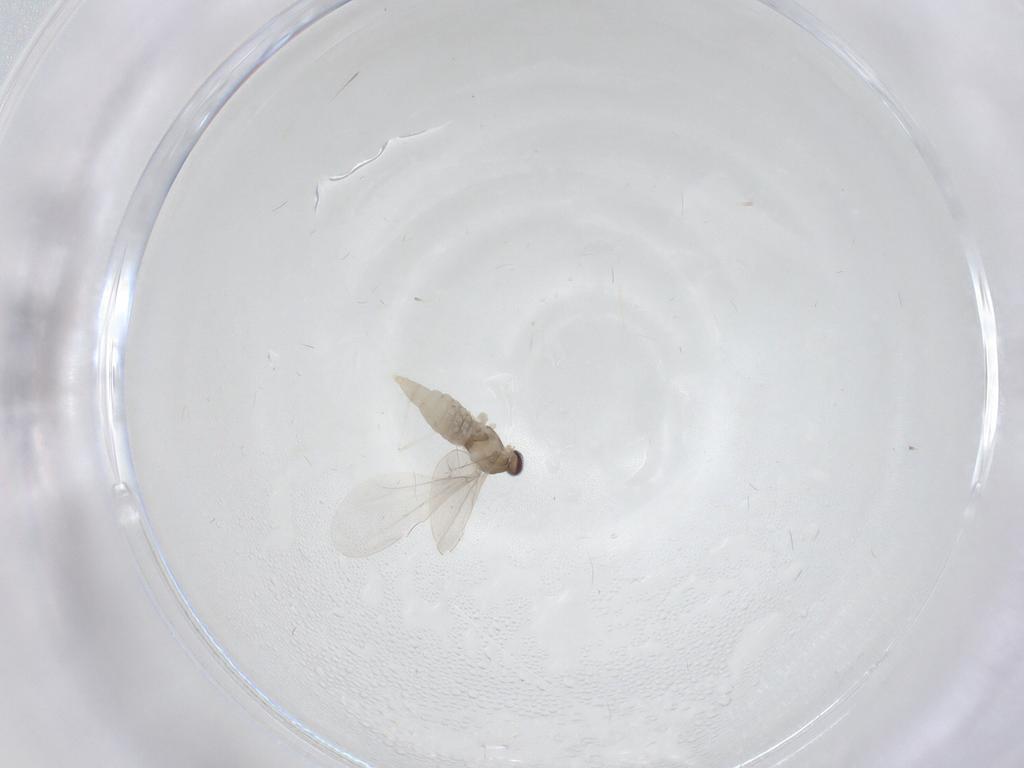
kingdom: Animalia
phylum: Arthropoda
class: Insecta
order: Diptera
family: Cecidomyiidae
